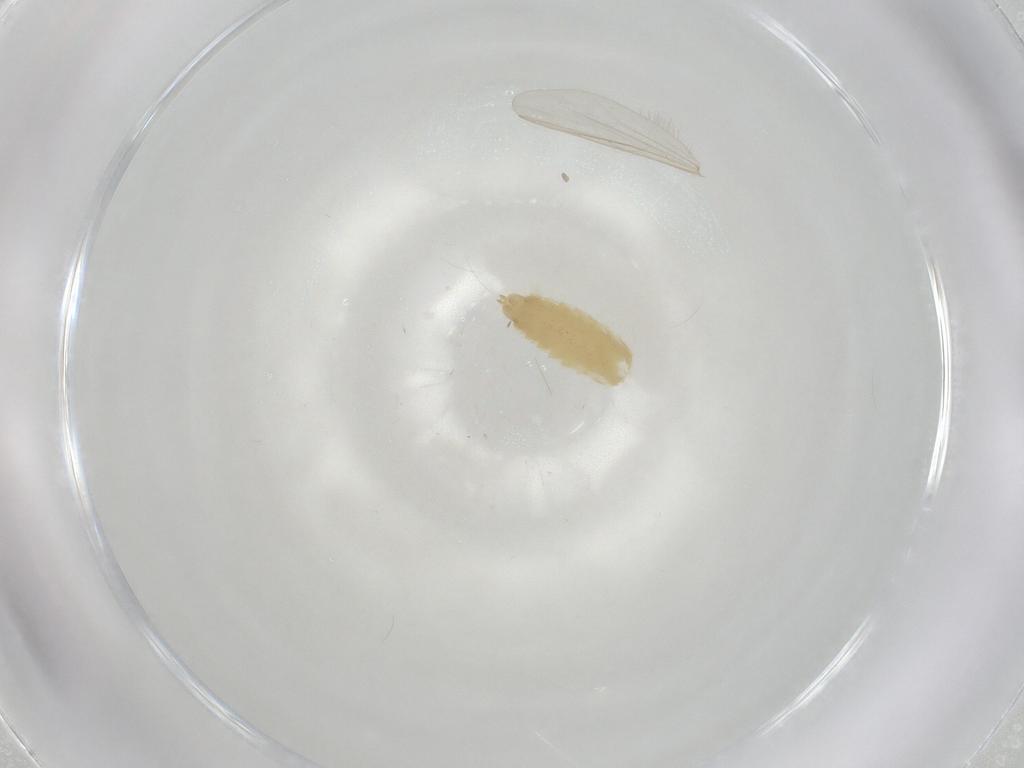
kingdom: Animalia
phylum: Arthropoda
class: Insecta
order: Diptera
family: Chironomidae
